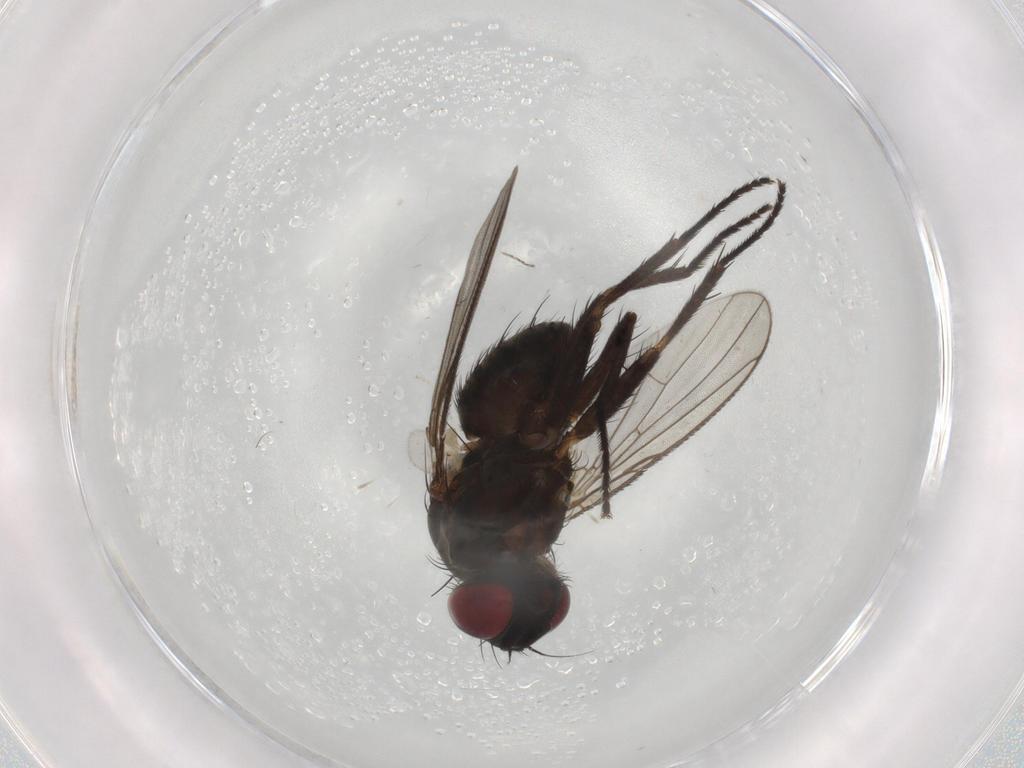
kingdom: Animalia
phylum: Arthropoda
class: Insecta
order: Diptera
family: Muscidae
